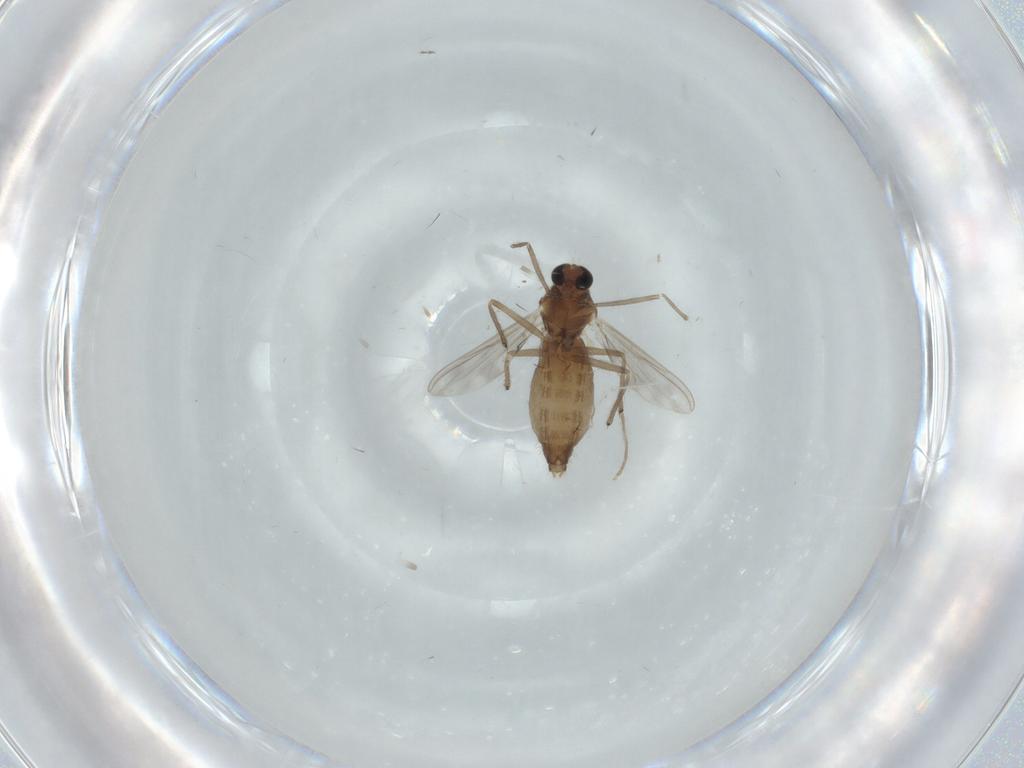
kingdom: Animalia
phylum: Arthropoda
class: Insecta
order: Diptera
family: Chironomidae
